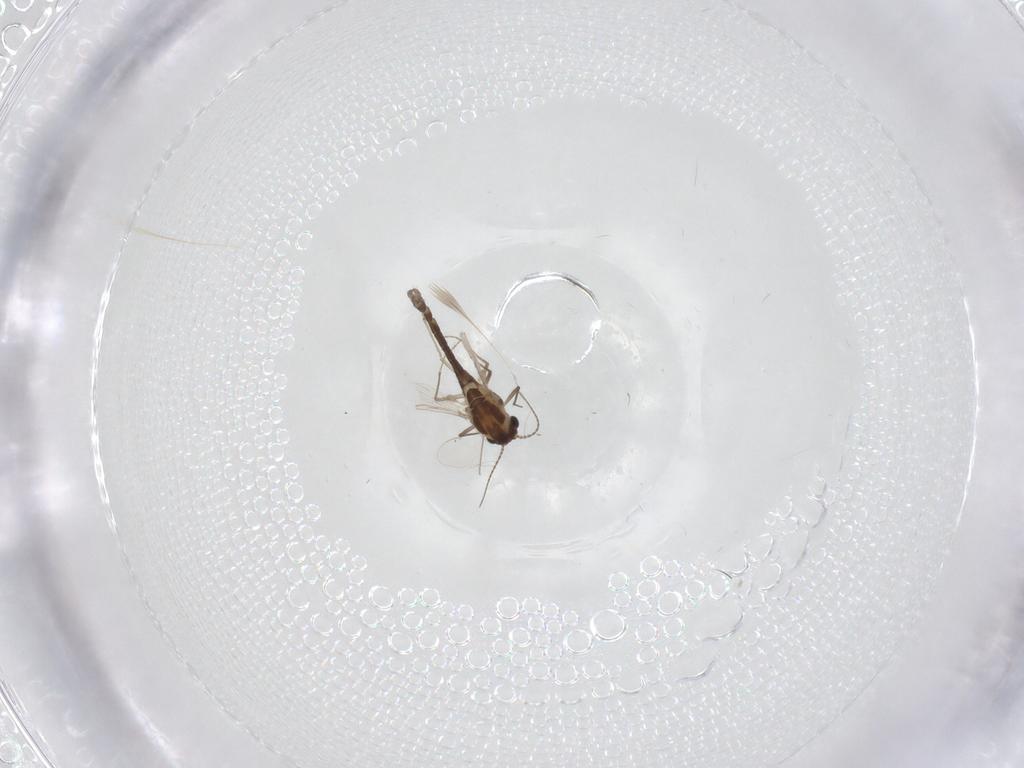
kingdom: Animalia
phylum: Arthropoda
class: Insecta
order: Diptera
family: Chironomidae
